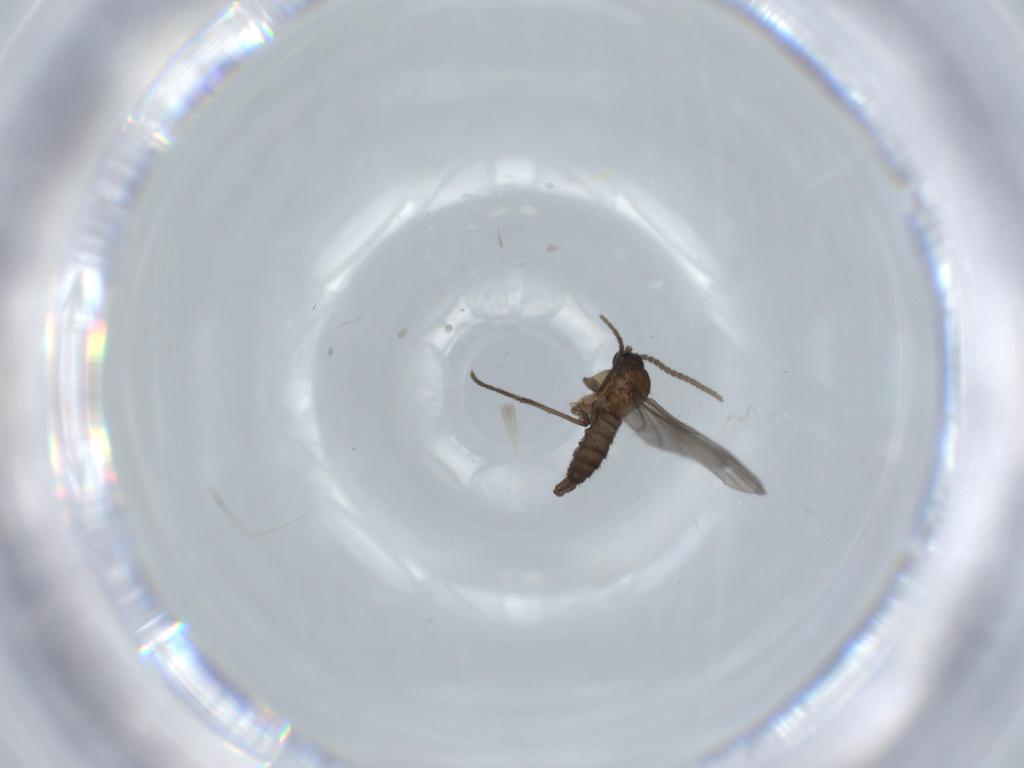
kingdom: Animalia
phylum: Arthropoda
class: Insecta
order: Diptera
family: Sciaridae
